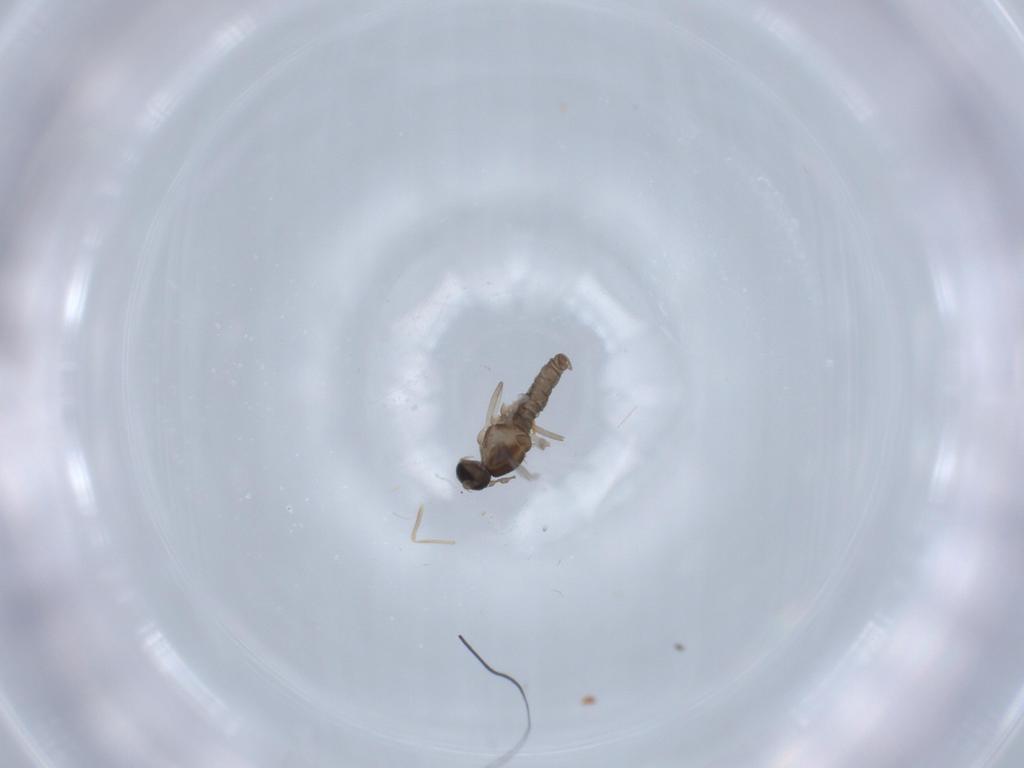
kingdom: Animalia
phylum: Arthropoda
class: Insecta
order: Diptera
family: Cecidomyiidae
